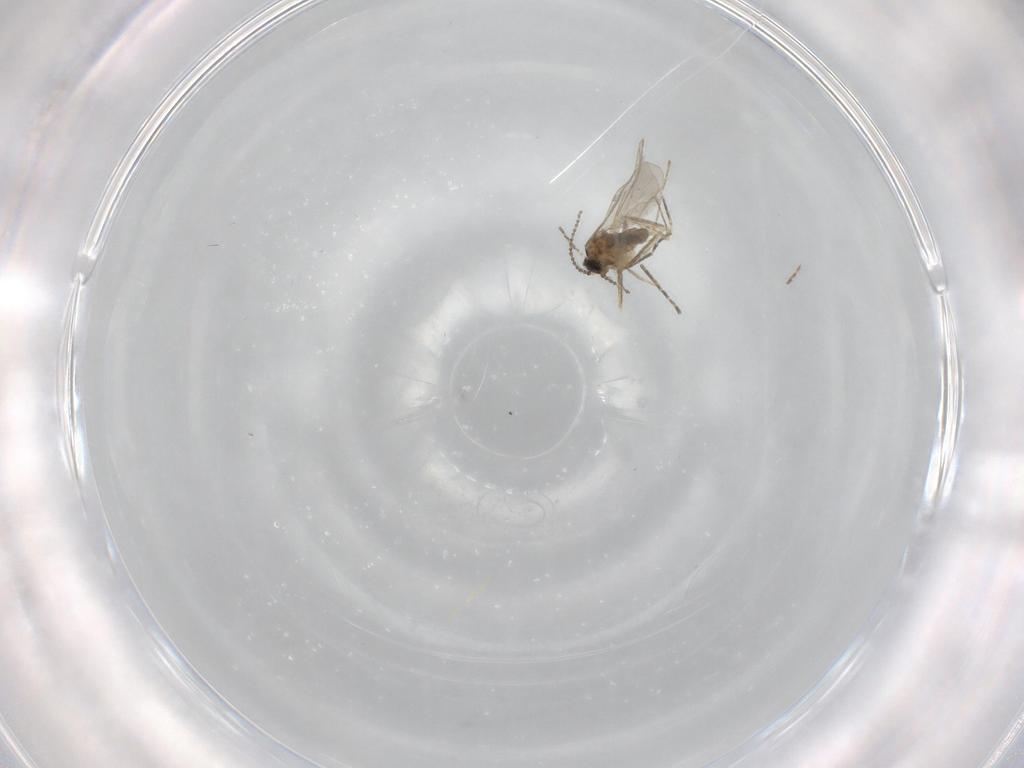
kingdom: Animalia
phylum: Arthropoda
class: Insecta
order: Diptera
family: Cecidomyiidae
